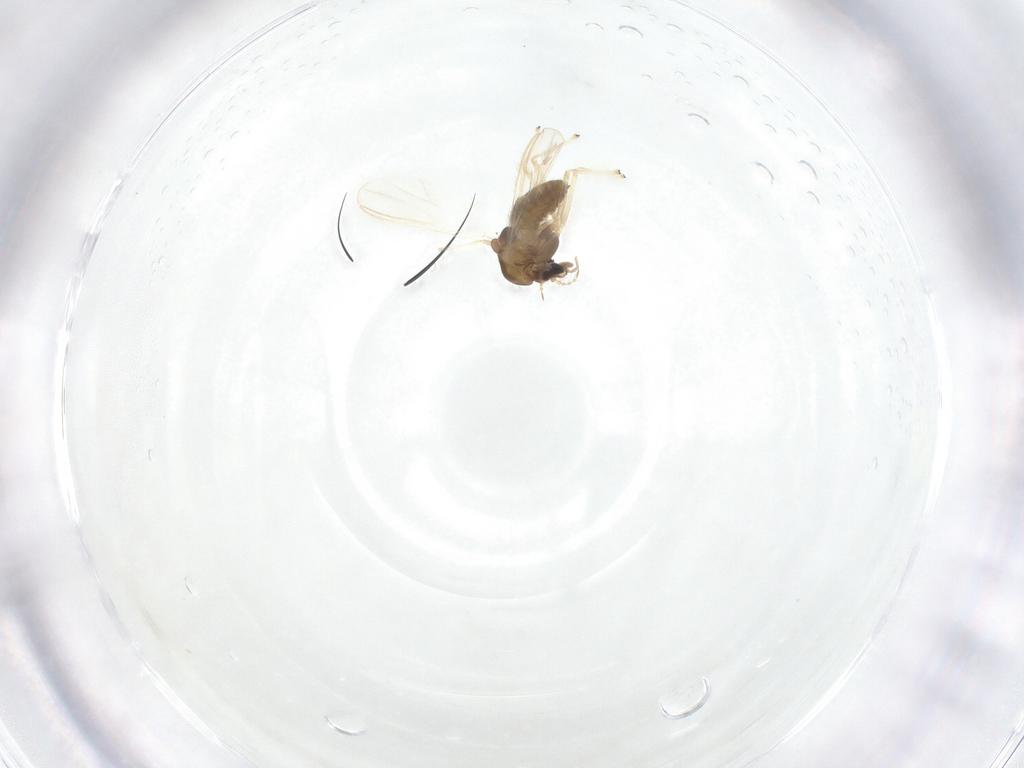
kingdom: Animalia
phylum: Arthropoda
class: Insecta
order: Diptera
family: Chironomidae
